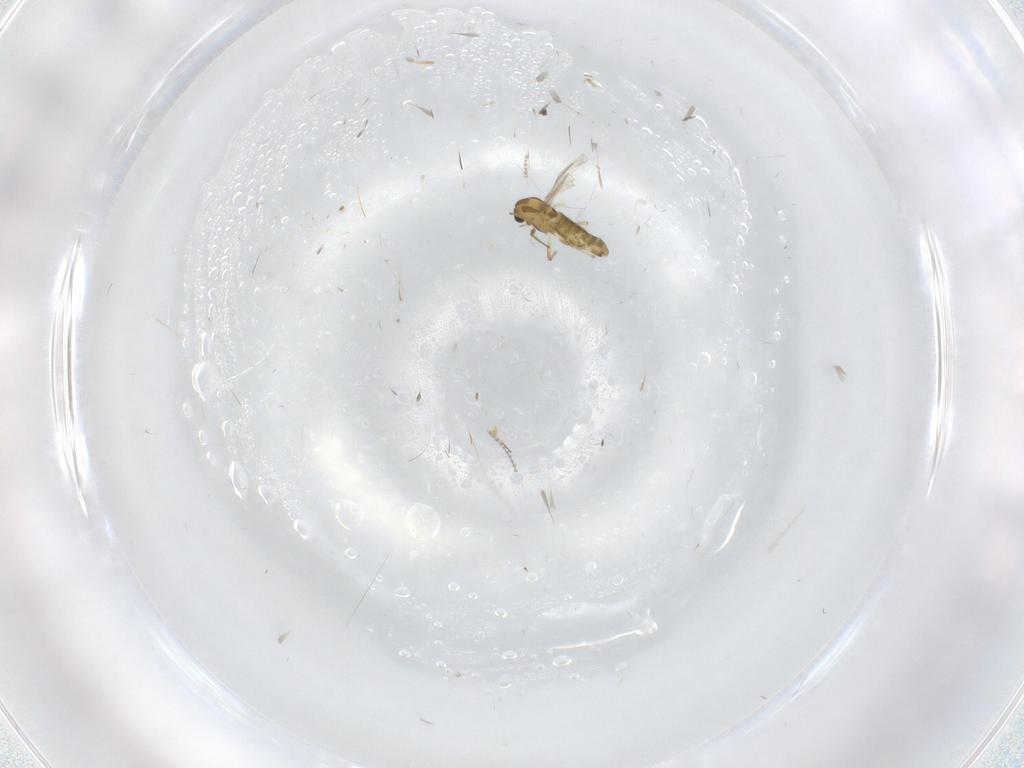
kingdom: Animalia
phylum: Arthropoda
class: Insecta
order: Diptera
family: Chironomidae
